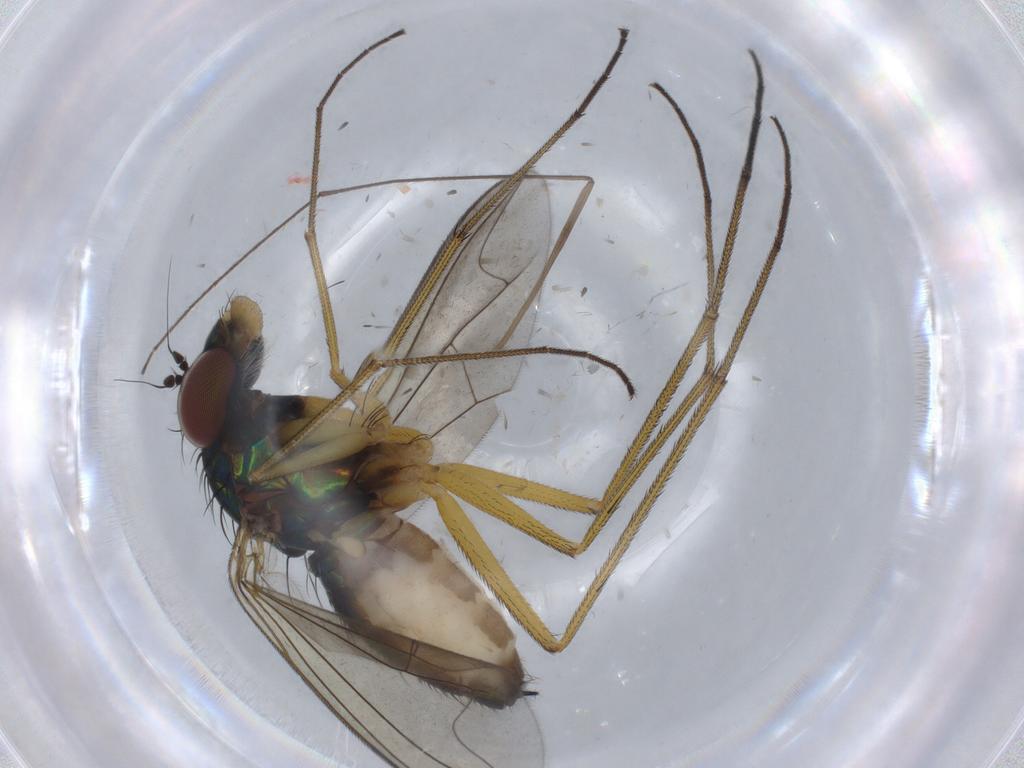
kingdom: Animalia
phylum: Arthropoda
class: Insecta
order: Diptera
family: Dolichopodidae
